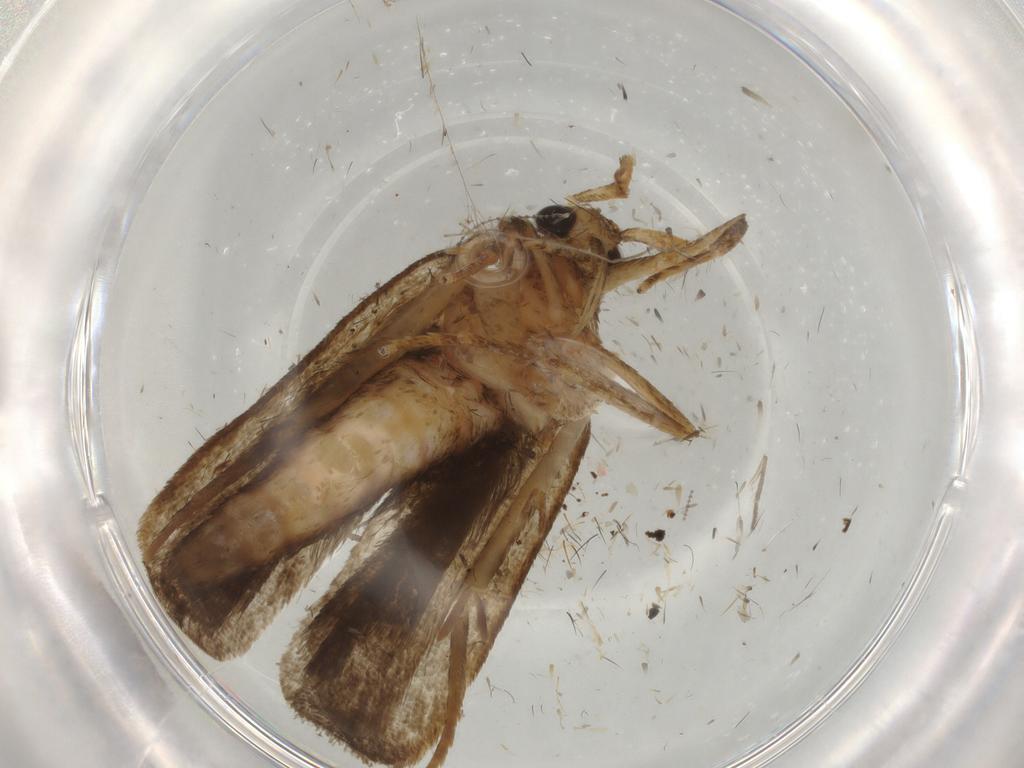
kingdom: Animalia
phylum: Arthropoda
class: Insecta
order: Lepidoptera
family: Autostichidae
